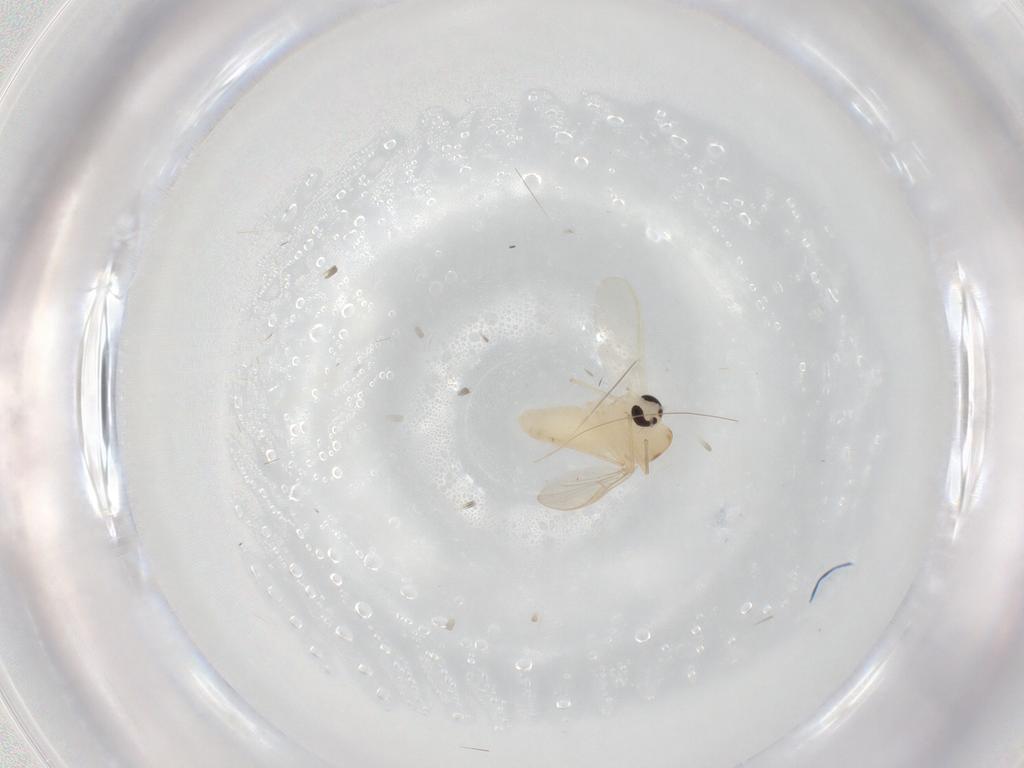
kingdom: Animalia
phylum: Arthropoda
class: Insecta
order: Diptera
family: Chironomidae
